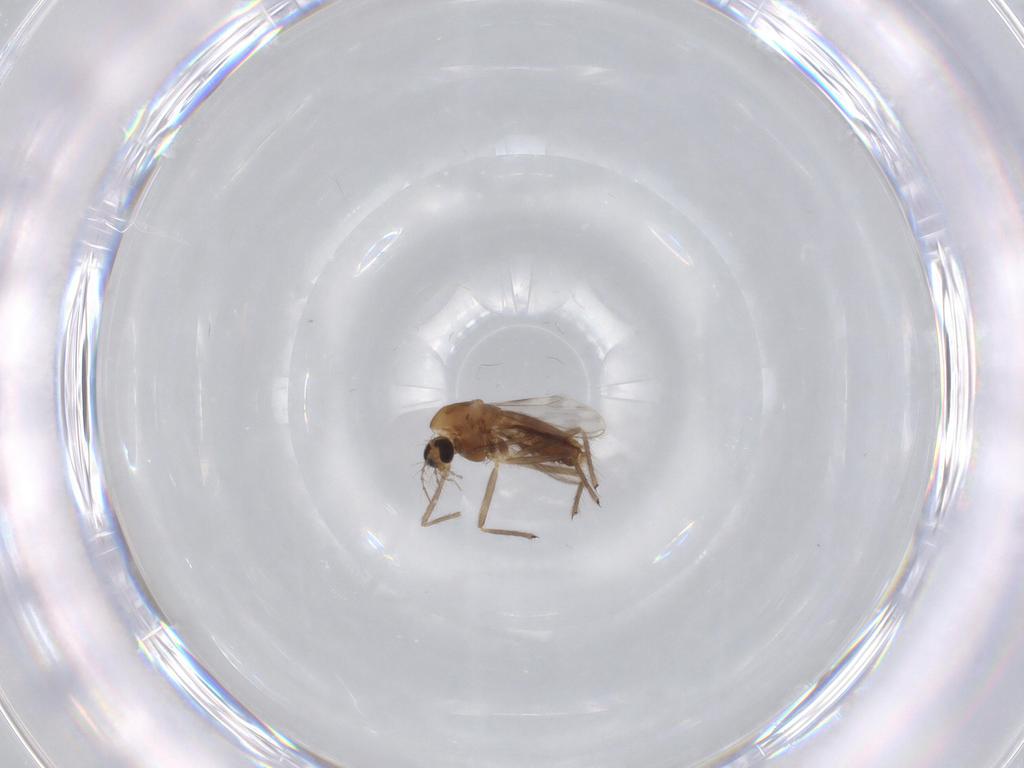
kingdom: Animalia
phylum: Arthropoda
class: Insecta
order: Diptera
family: Chironomidae
